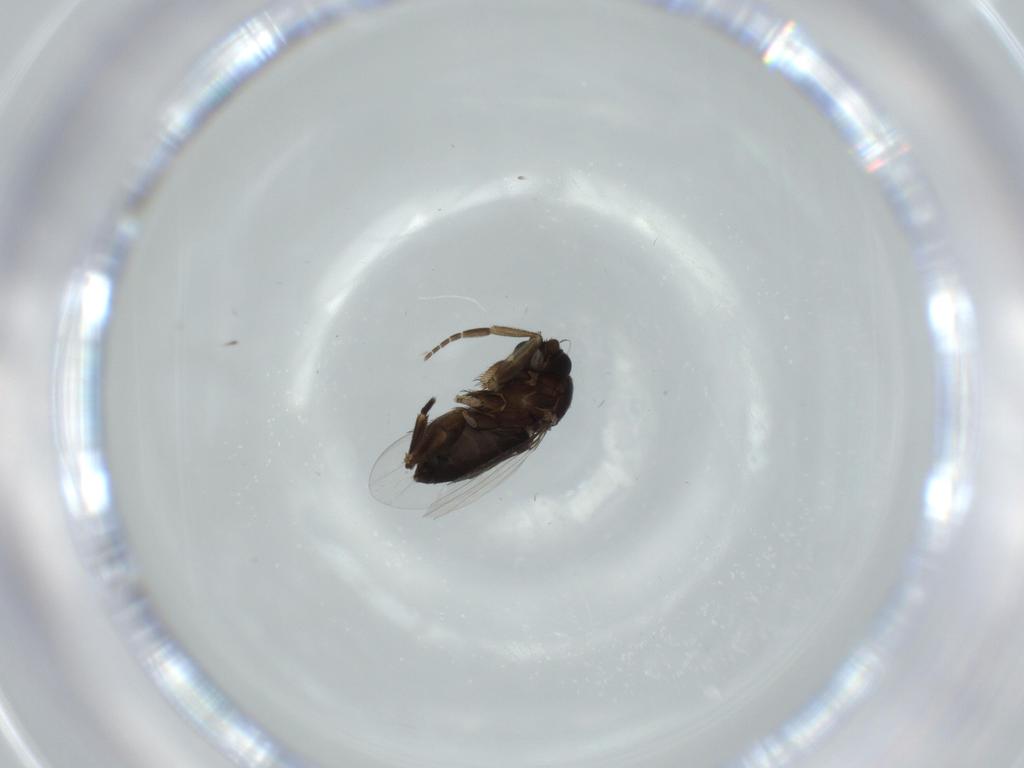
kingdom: Animalia
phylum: Arthropoda
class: Insecta
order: Diptera
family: Phoridae
